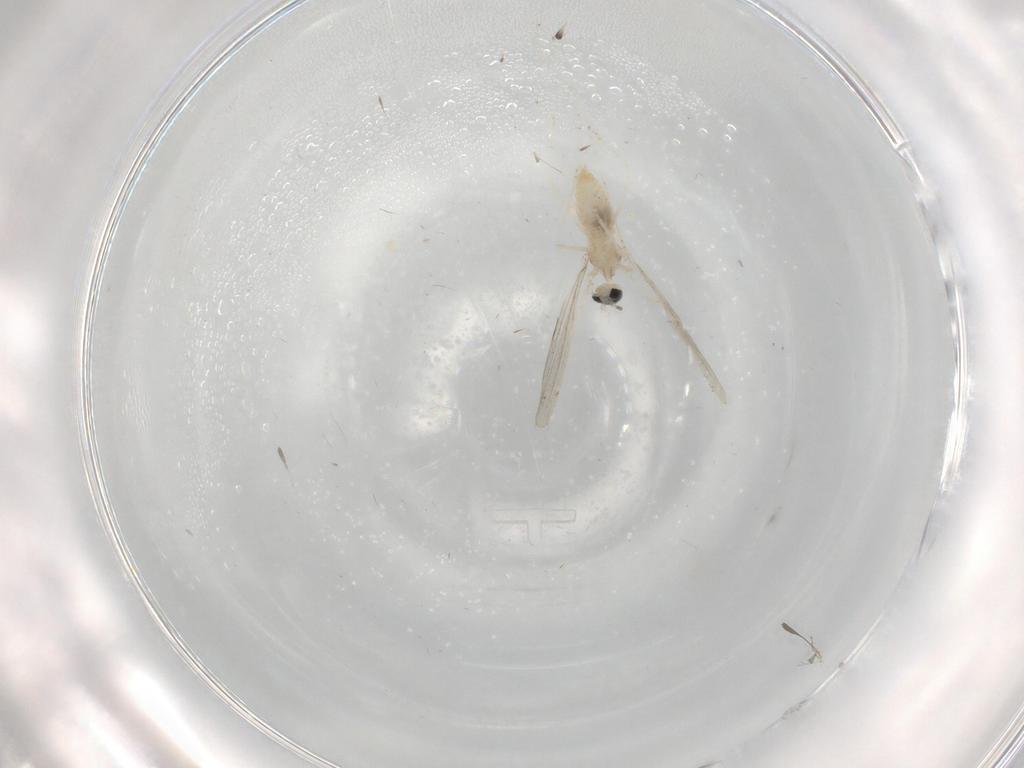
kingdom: Animalia
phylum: Arthropoda
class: Insecta
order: Diptera
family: Cecidomyiidae
